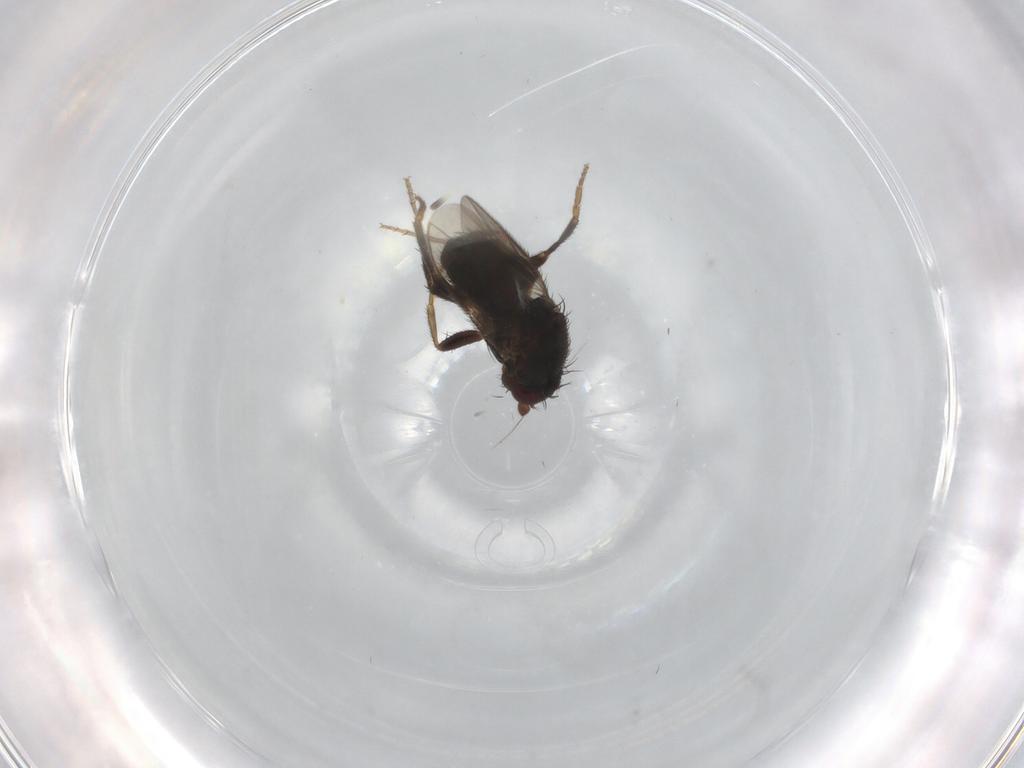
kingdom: Animalia
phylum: Arthropoda
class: Insecta
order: Diptera
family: Sphaeroceridae
